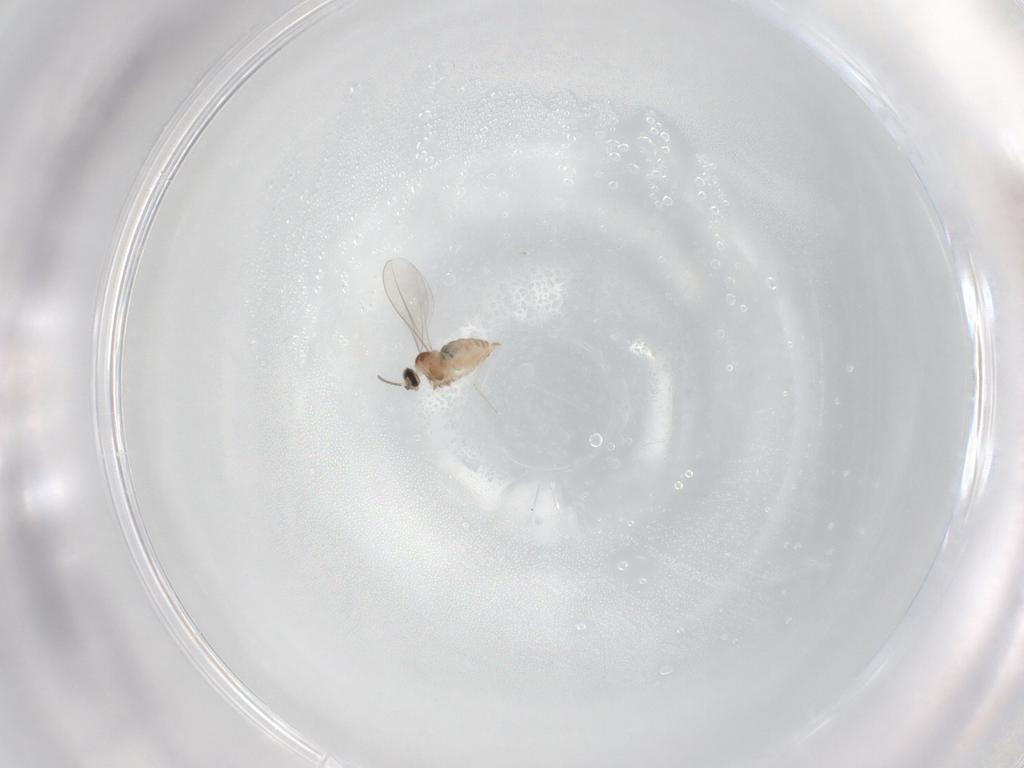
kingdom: Animalia
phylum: Arthropoda
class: Insecta
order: Diptera
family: Cecidomyiidae
